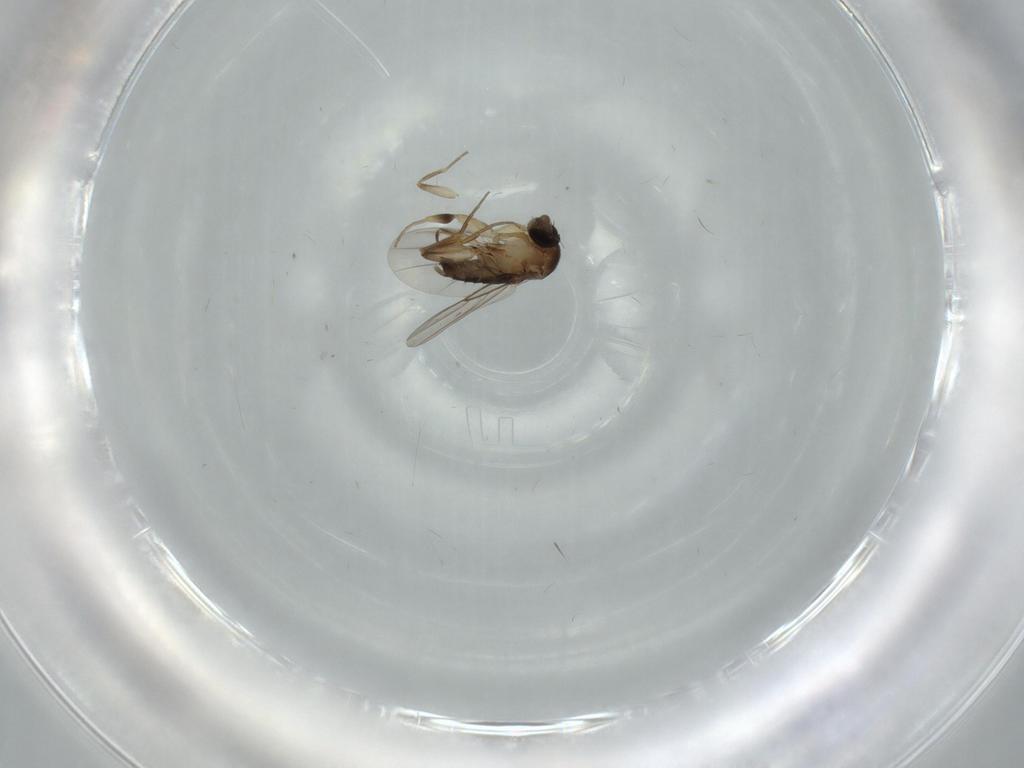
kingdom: Animalia
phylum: Arthropoda
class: Insecta
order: Diptera
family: Phoridae
